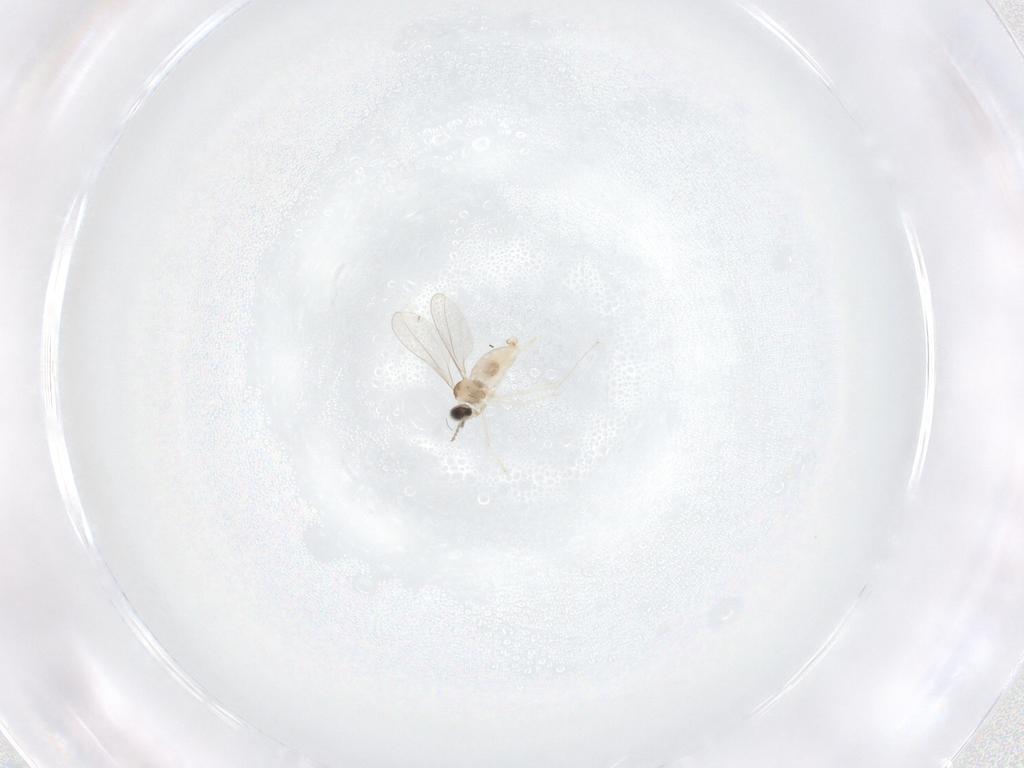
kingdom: Animalia
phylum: Arthropoda
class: Insecta
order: Diptera
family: Cecidomyiidae
